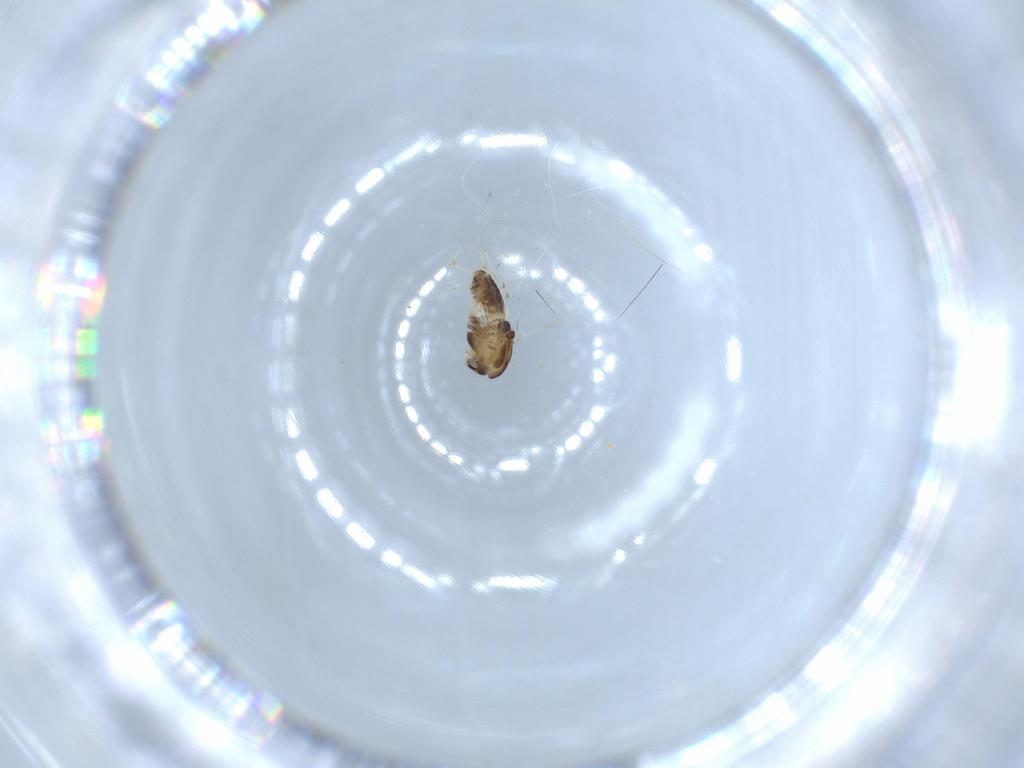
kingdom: Animalia
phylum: Arthropoda
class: Insecta
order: Diptera
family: Chironomidae
